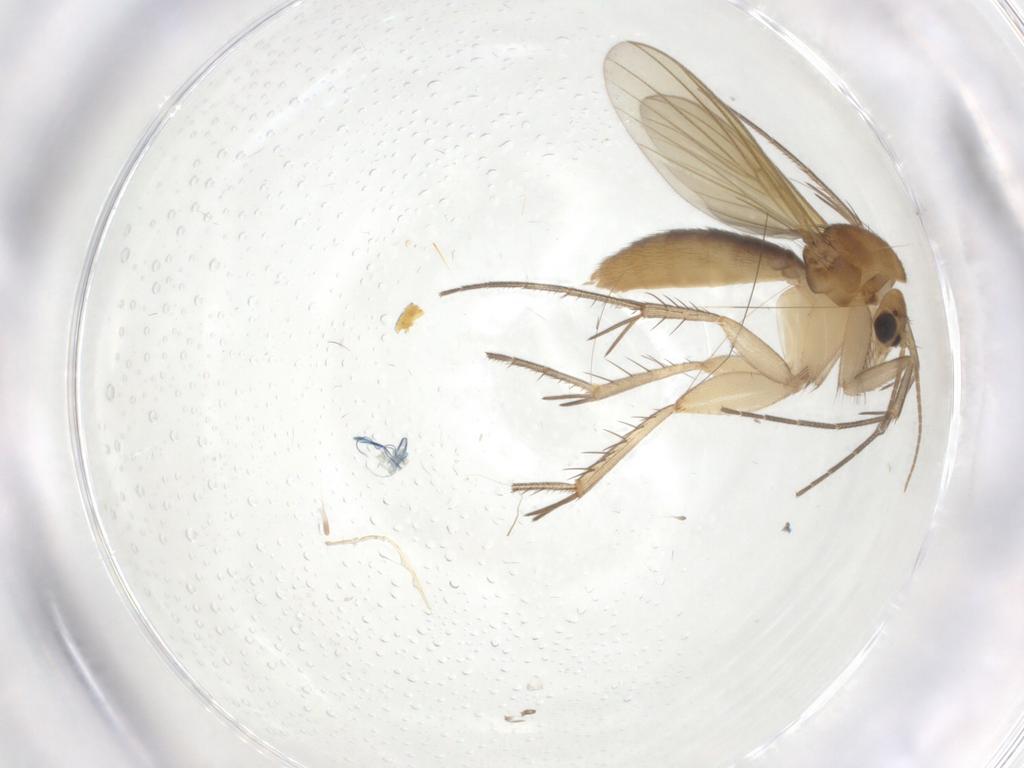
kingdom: Animalia
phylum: Arthropoda
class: Insecta
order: Diptera
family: Mycetophilidae
